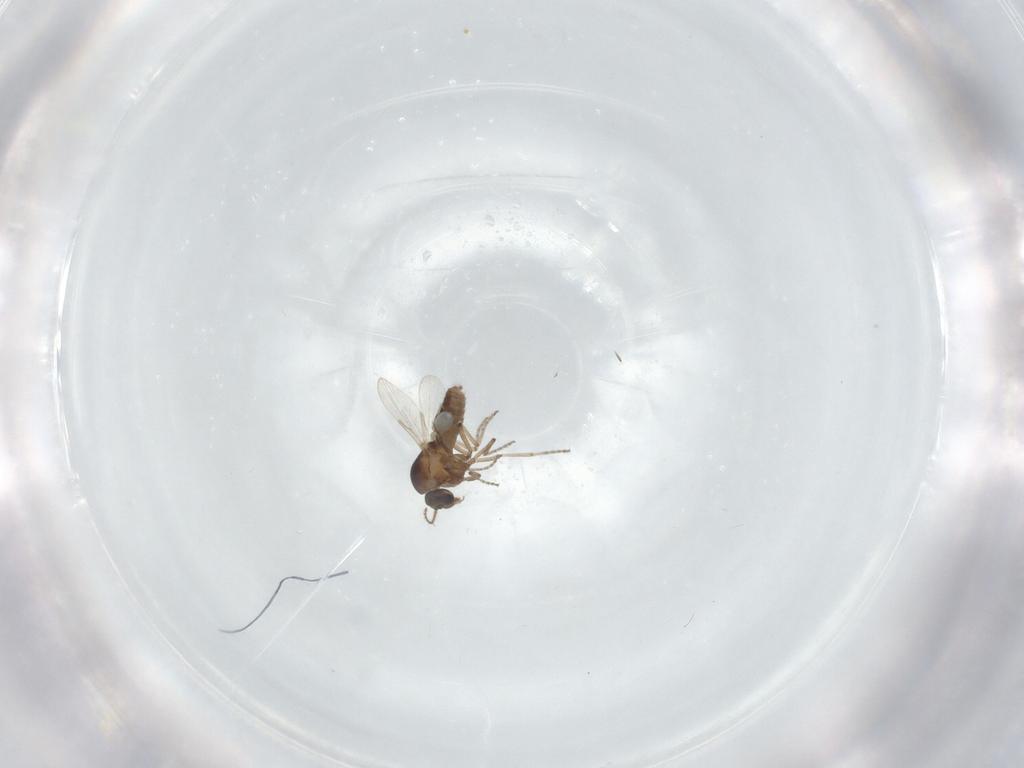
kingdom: Animalia
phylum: Arthropoda
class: Insecta
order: Diptera
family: Ceratopogonidae
